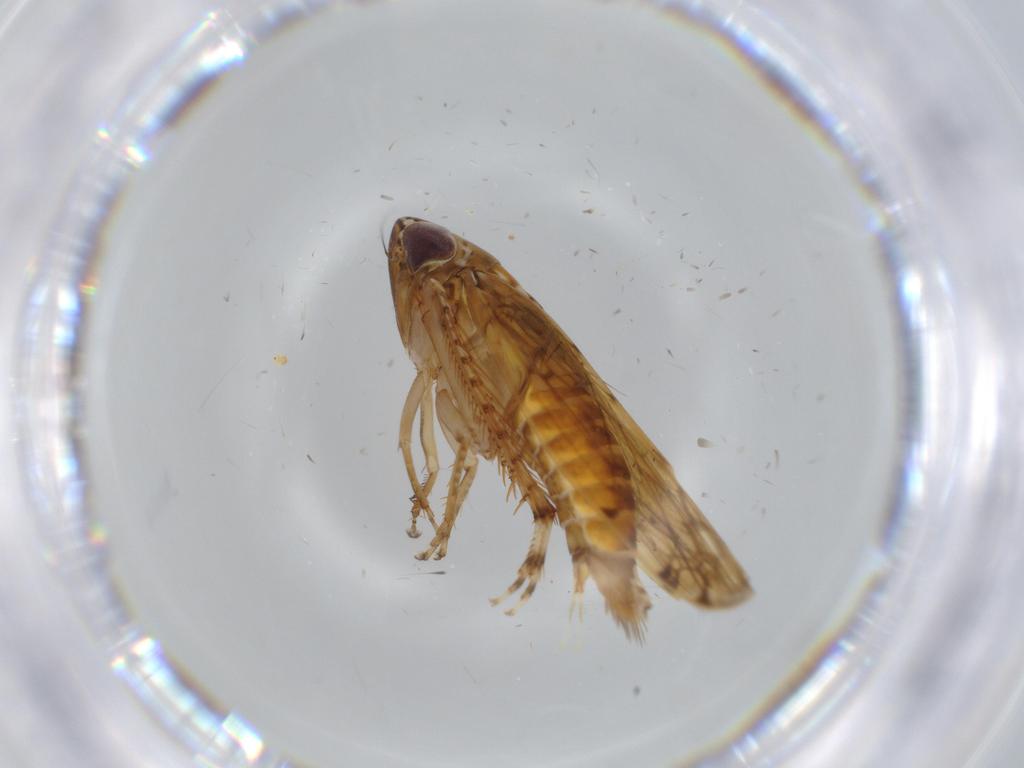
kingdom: Animalia
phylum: Arthropoda
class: Insecta
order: Hemiptera
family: Cicadellidae
